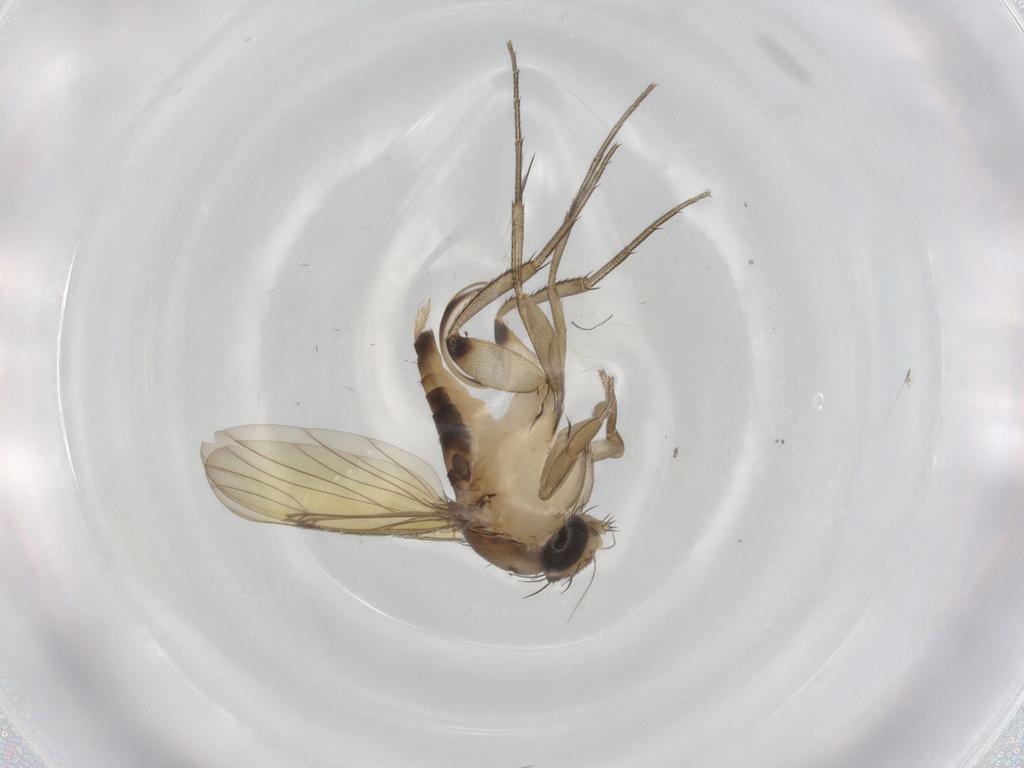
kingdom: Animalia
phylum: Arthropoda
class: Insecta
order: Diptera
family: Phoridae
